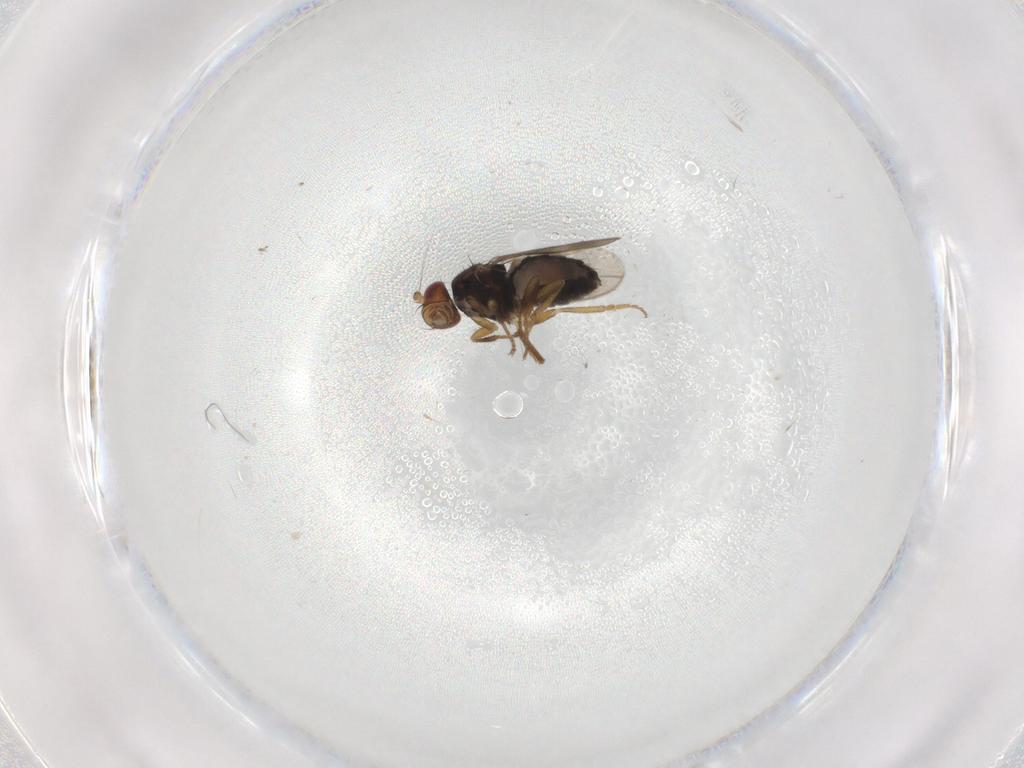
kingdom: Animalia
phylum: Arthropoda
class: Insecta
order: Diptera
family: Sphaeroceridae
